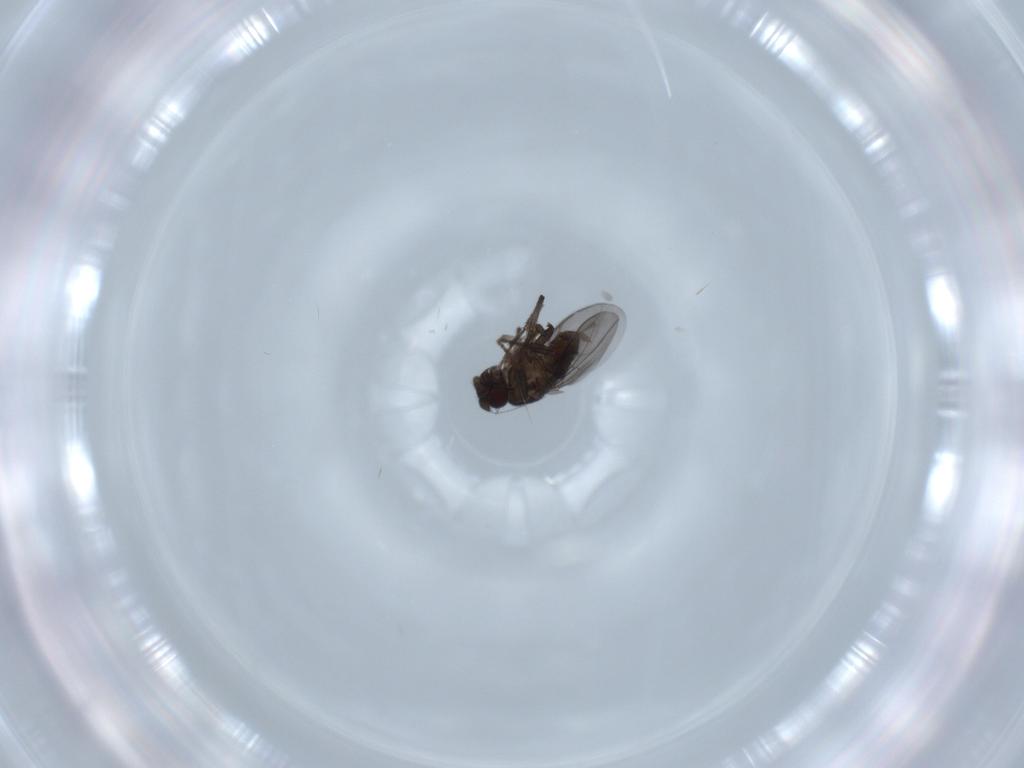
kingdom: Animalia
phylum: Arthropoda
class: Insecta
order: Diptera
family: Sphaeroceridae
